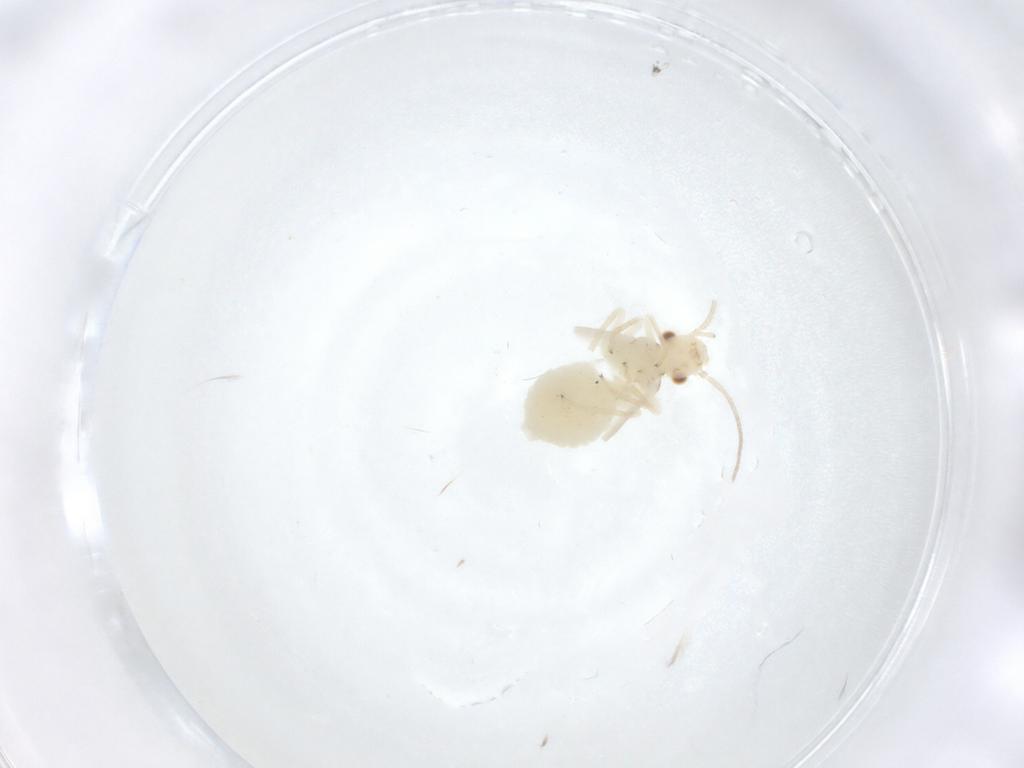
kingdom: Animalia
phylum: Arthropoda
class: Insecta
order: Psocodea
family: Caeciliusidae
